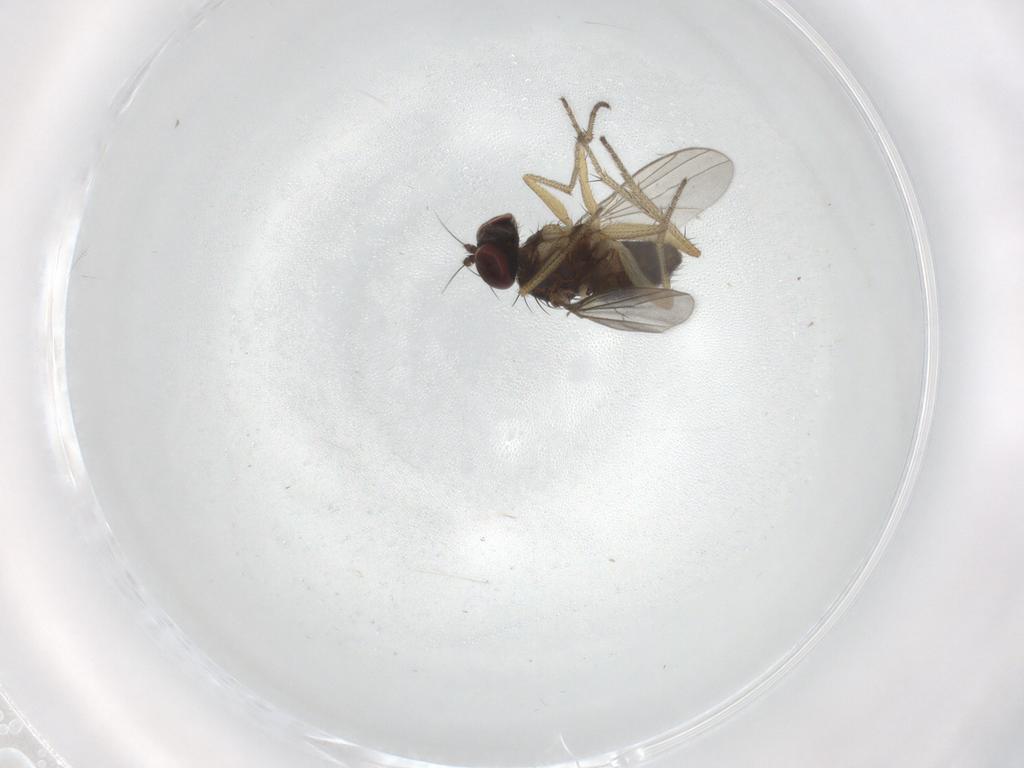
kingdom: Animalia
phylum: Arthropoda
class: Insecta
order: Diptera
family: Dolichopodidae
